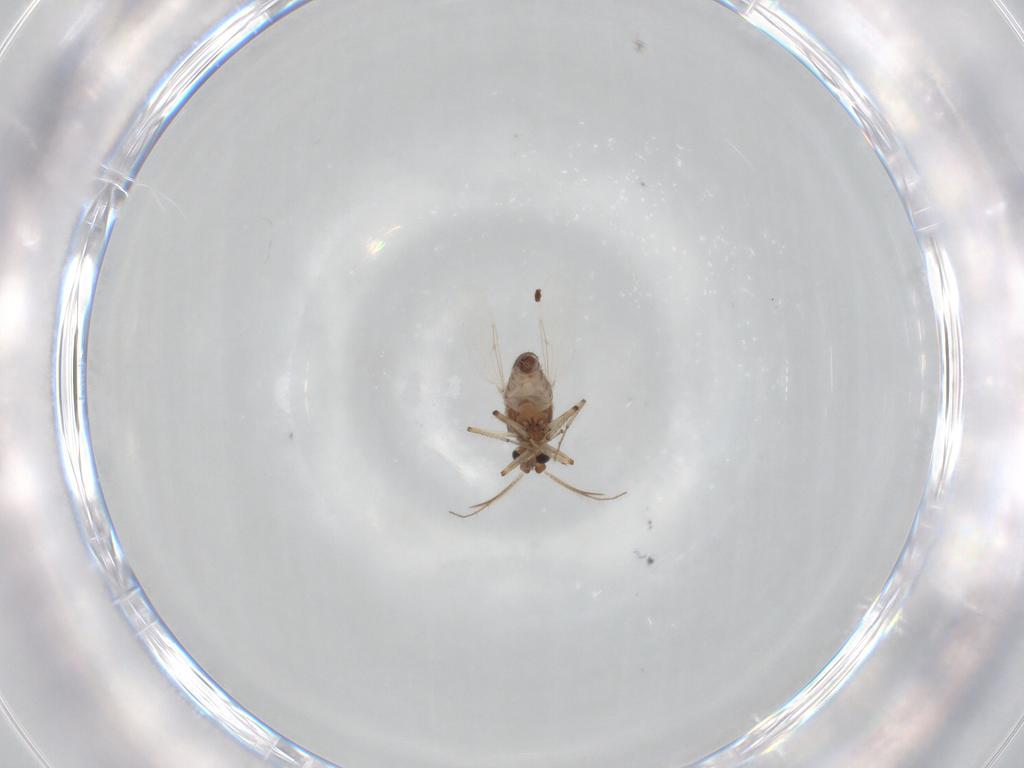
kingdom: Animalia
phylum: Arthropoda
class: Insecta
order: Diptera
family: Ceratopogonidae
